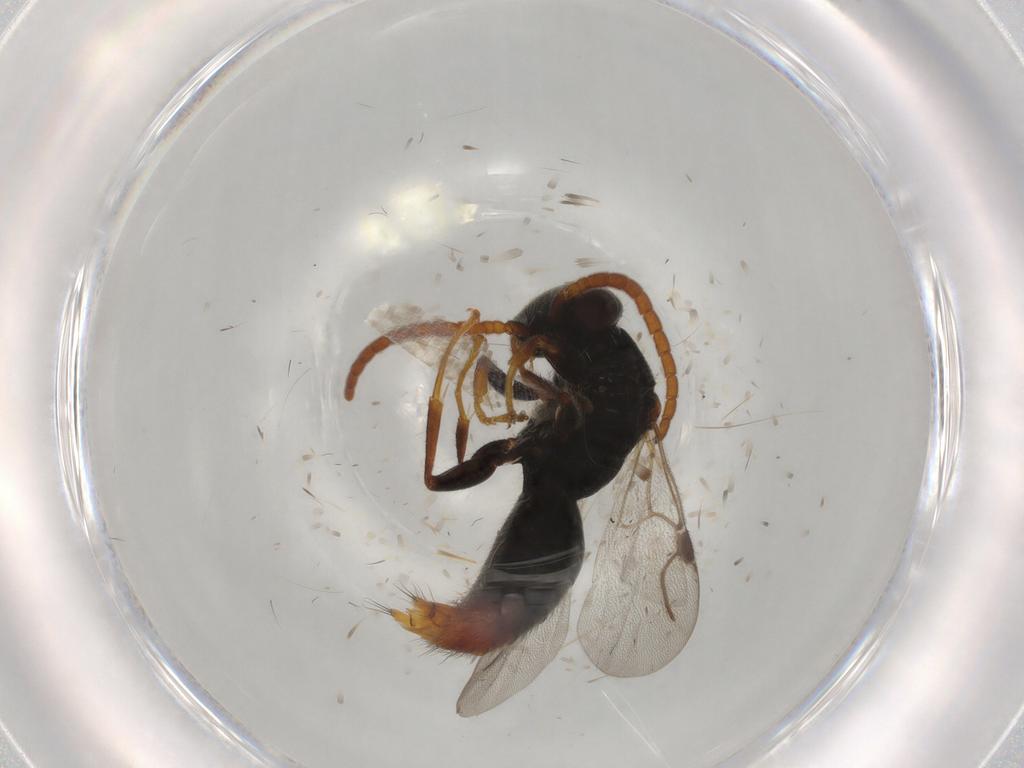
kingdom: Animalia
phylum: Arthropoda
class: Insecta
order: Hymenoptera
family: Bethylidae
